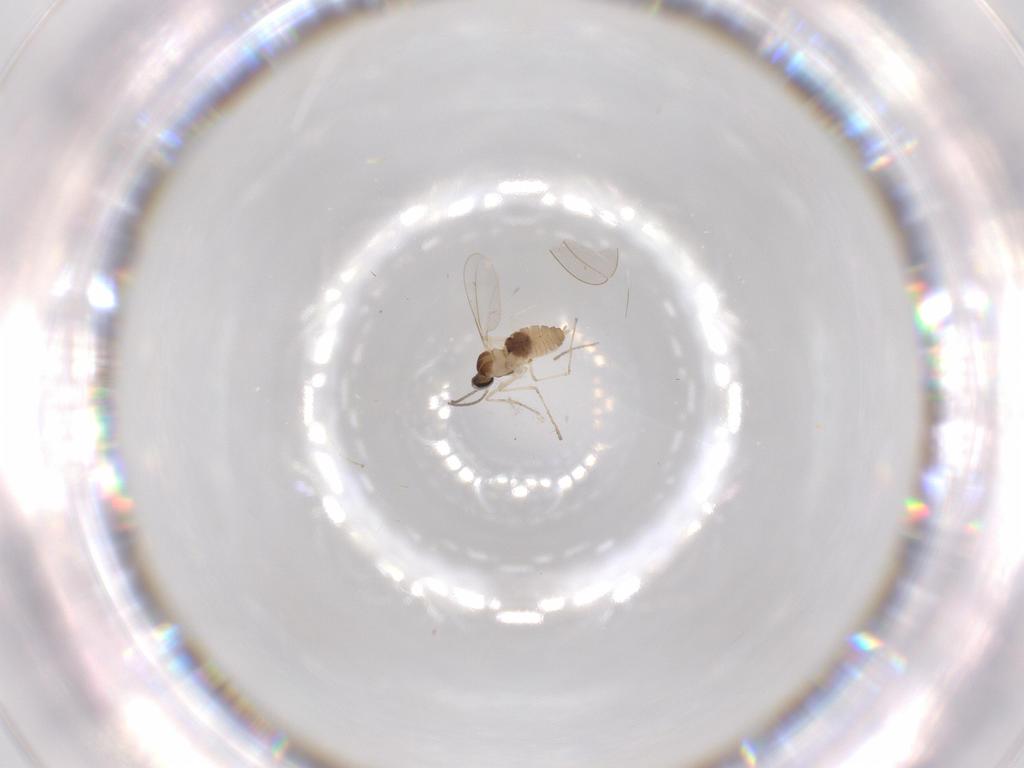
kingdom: Animalia
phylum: Arthropoda
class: Insecta
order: Diptera
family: Cecidomyiidae
